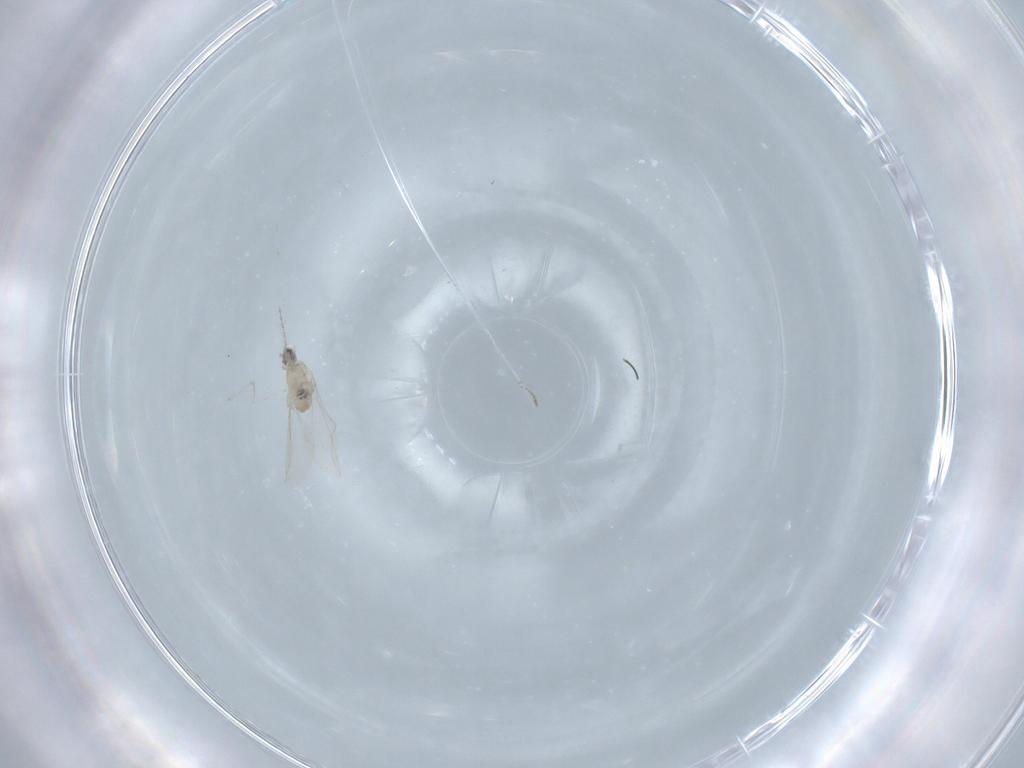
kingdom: Animalia
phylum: Arthropoda
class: Insecta
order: Diptera
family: Cecidomyiidae
